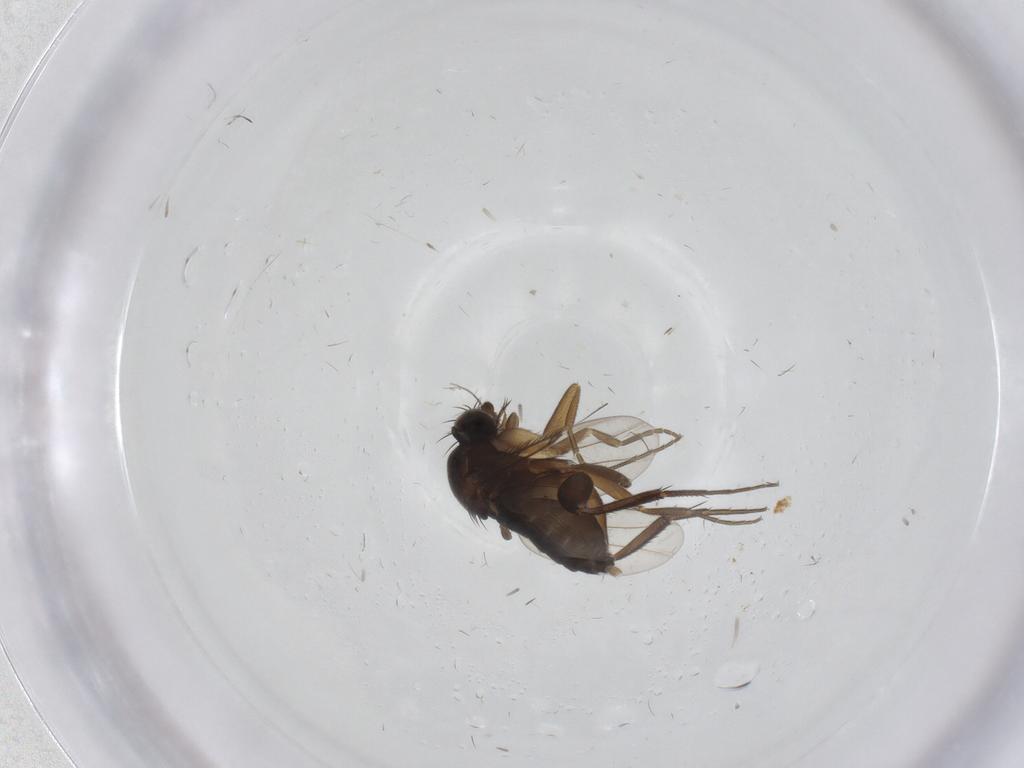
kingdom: Animalia
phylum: Arthropoda
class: Insecta
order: Diptera
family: Phoridae
